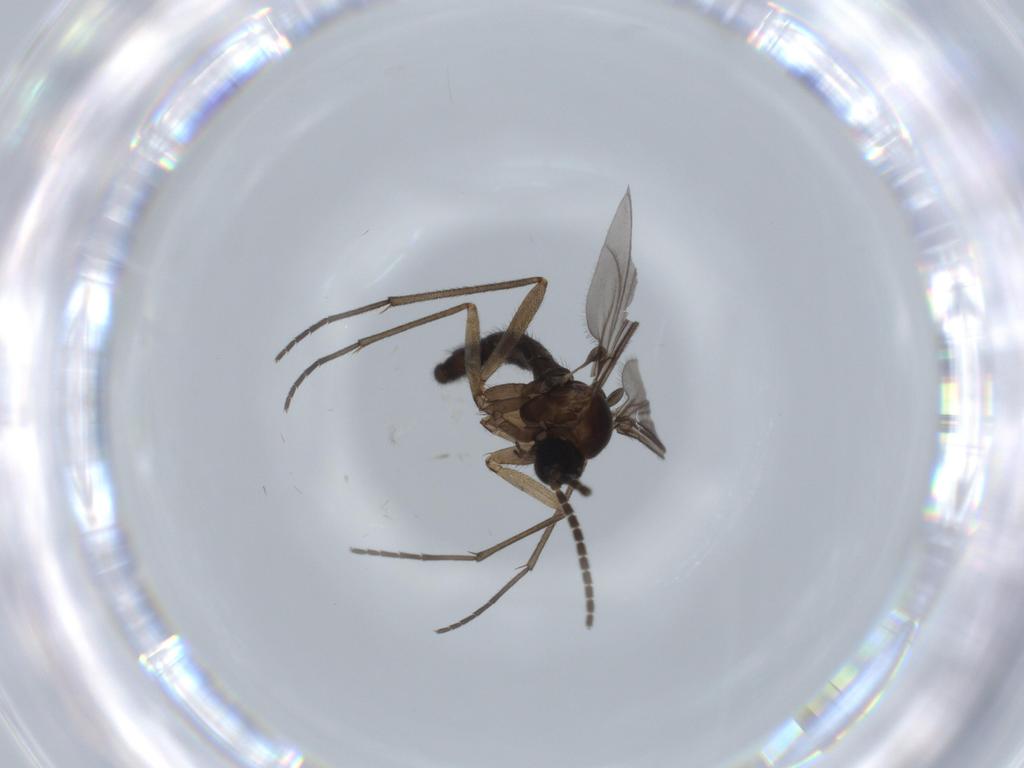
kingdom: Animalia
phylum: Arthropoda
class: Insecta
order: Diptera
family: Sciaridae
